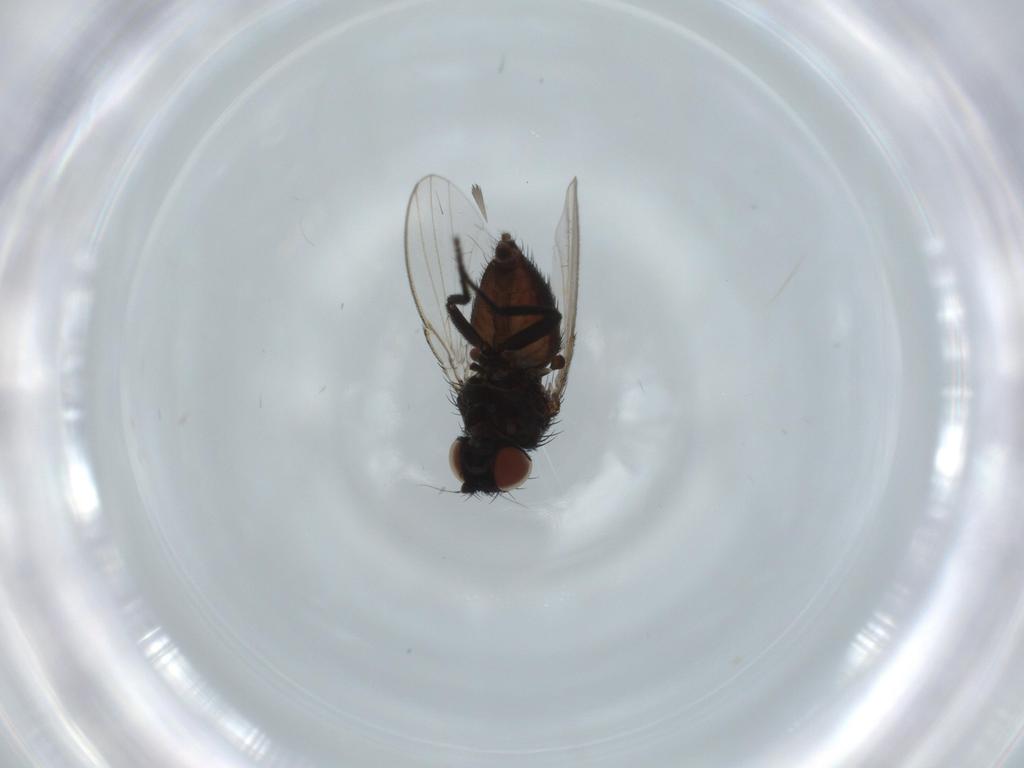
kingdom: Animalia
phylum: Arthropoda
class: Insecta
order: Diptera
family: Milichiidae
